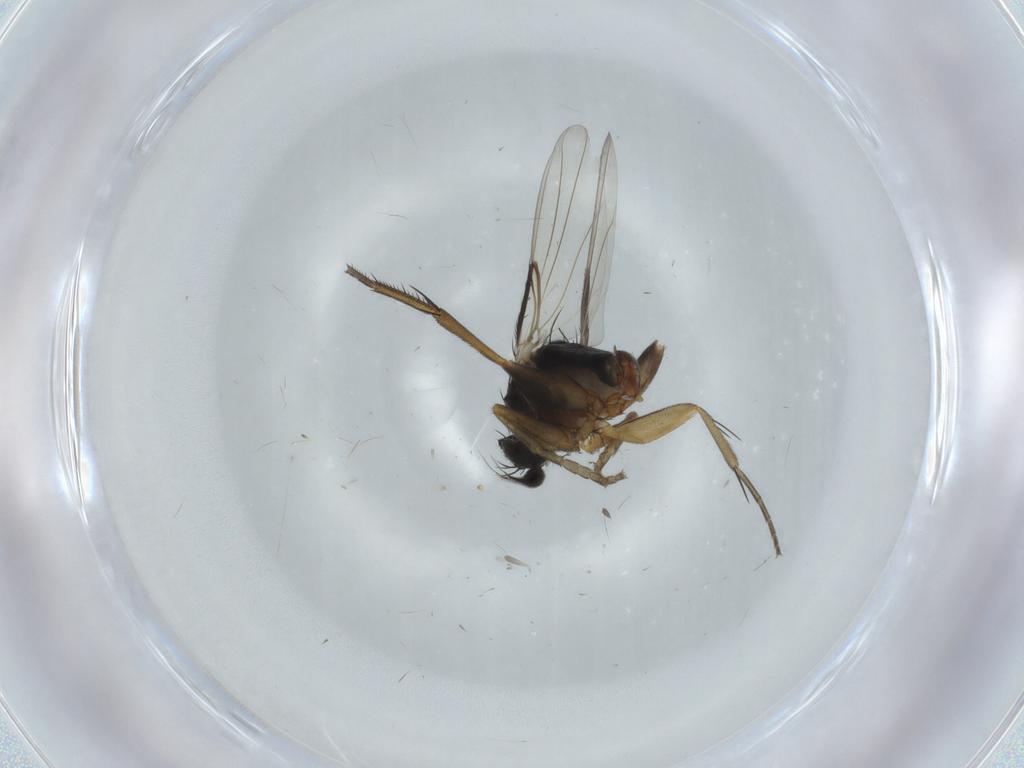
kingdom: Animalia
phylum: Arthropoda
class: Insecta
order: Diptera
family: Phoridae
